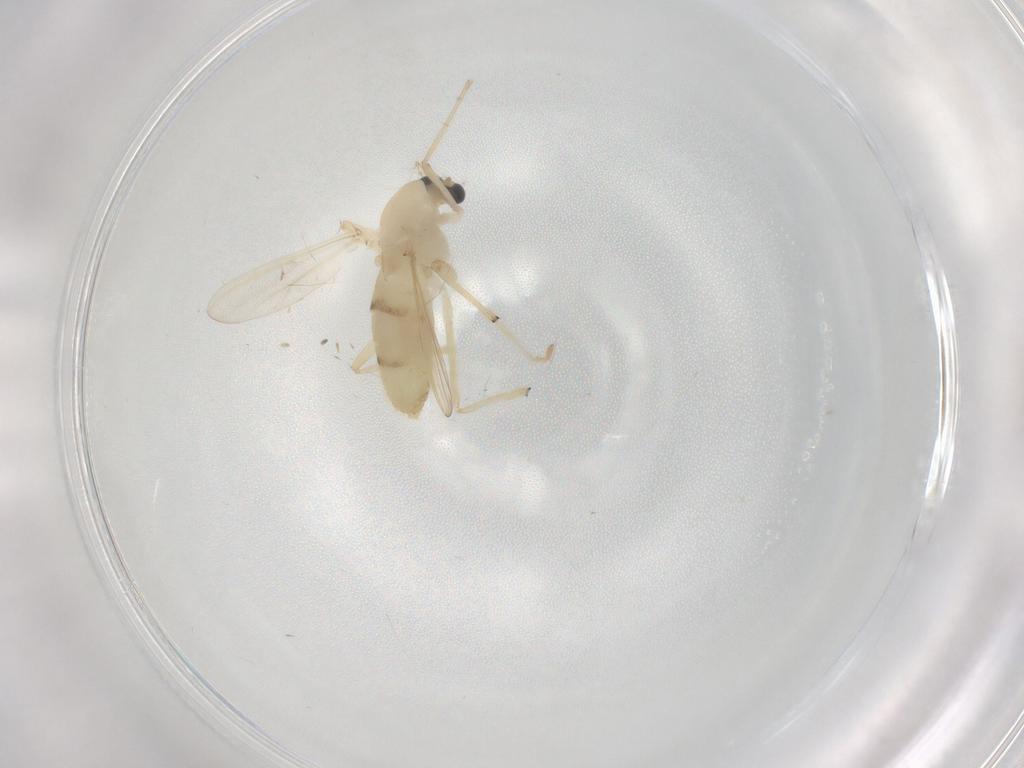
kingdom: Animalia
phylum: Arthropoda
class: Insecta
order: Diptera
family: Chironomidae
